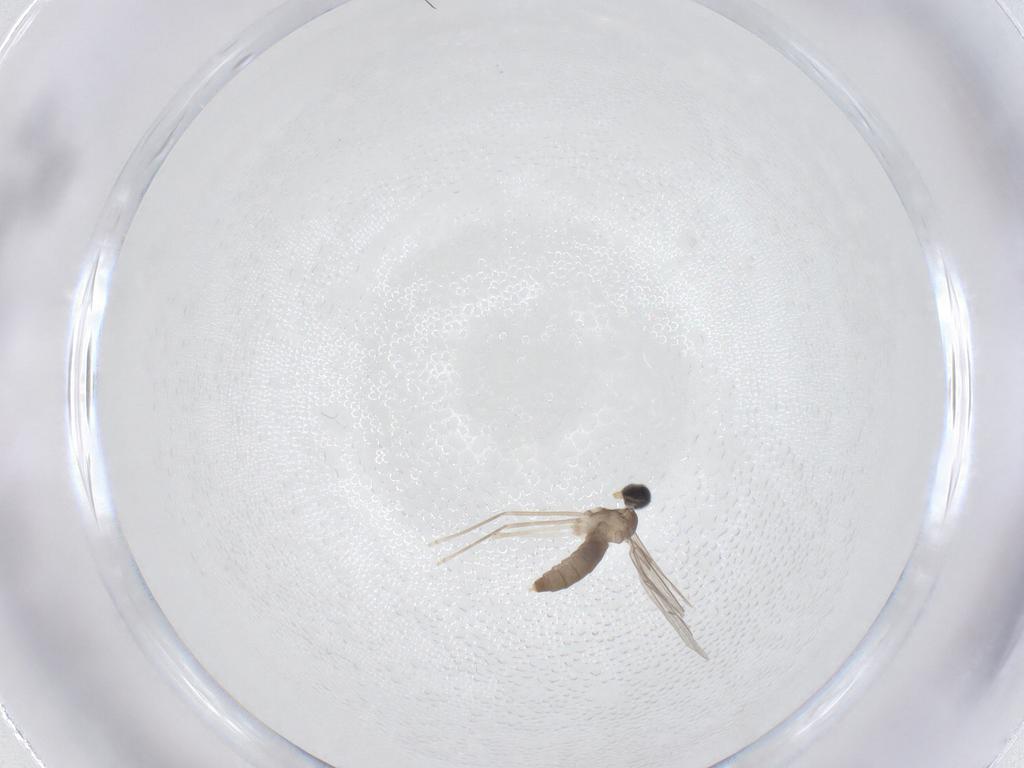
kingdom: Animalia
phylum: Arthropoda
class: Insecta
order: Diptera
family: Cecidomyiidae
